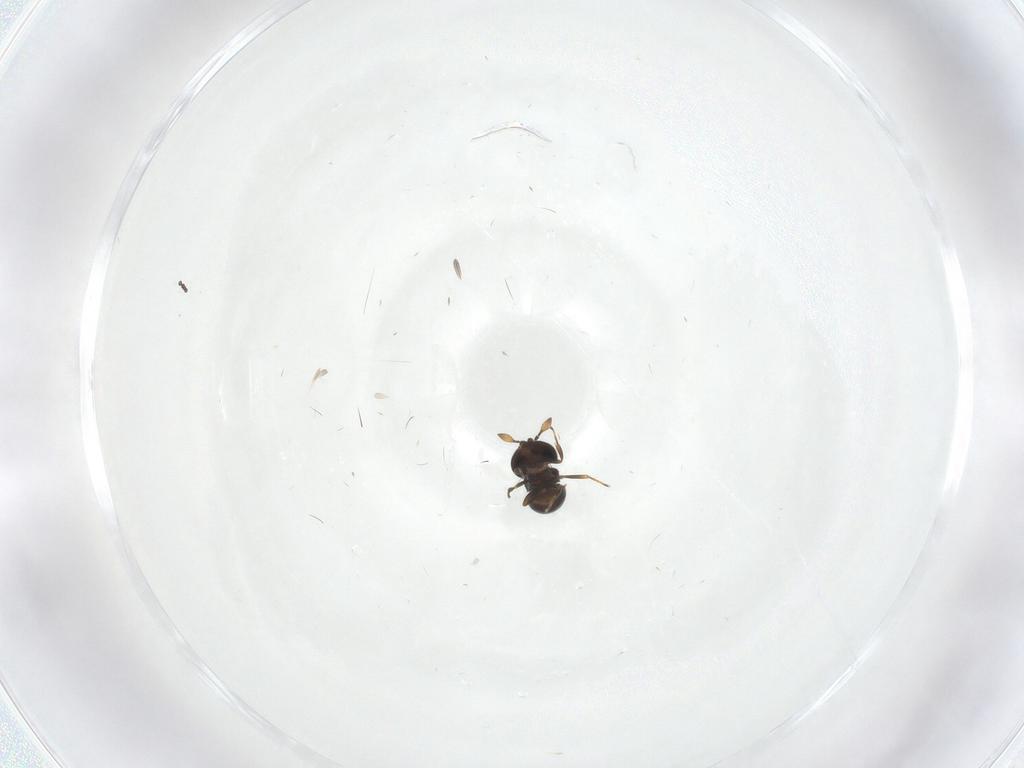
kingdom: Animalia
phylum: Arthropoda
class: Insecta
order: Hymenoptera
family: Scelionidae
